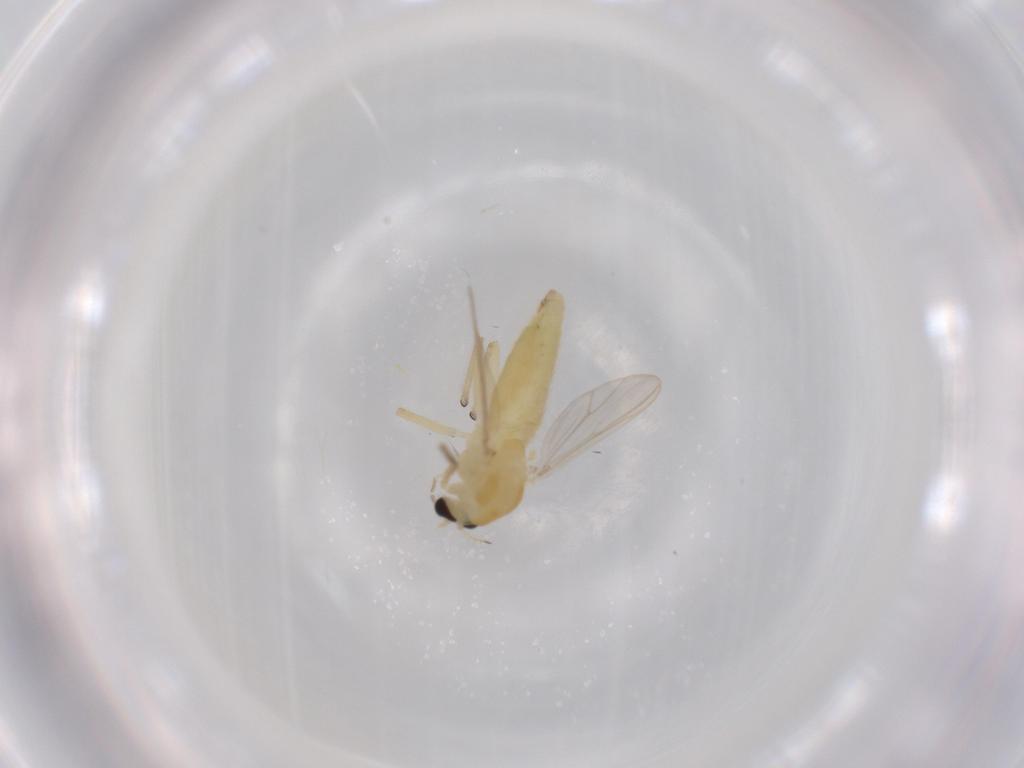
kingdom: Animalia
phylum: Arthropoda
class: Insecta
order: Diptera
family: Chironomidae
